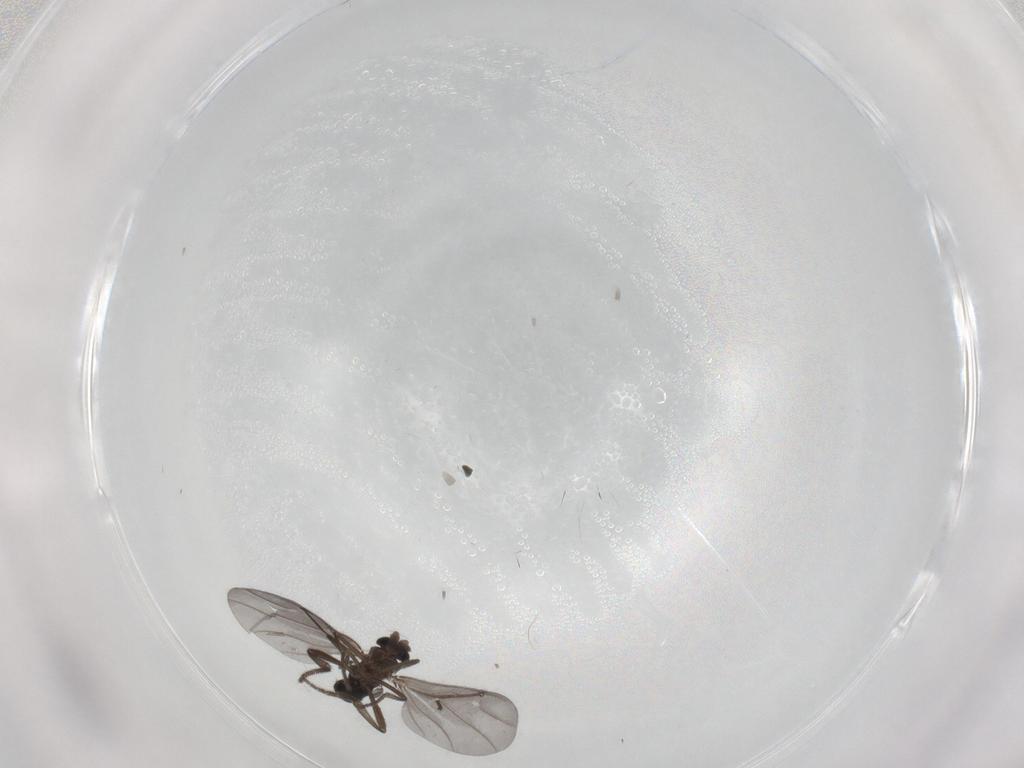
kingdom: Animalia
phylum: Arthropoda
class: Insecta
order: Diptera
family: Phoridae
